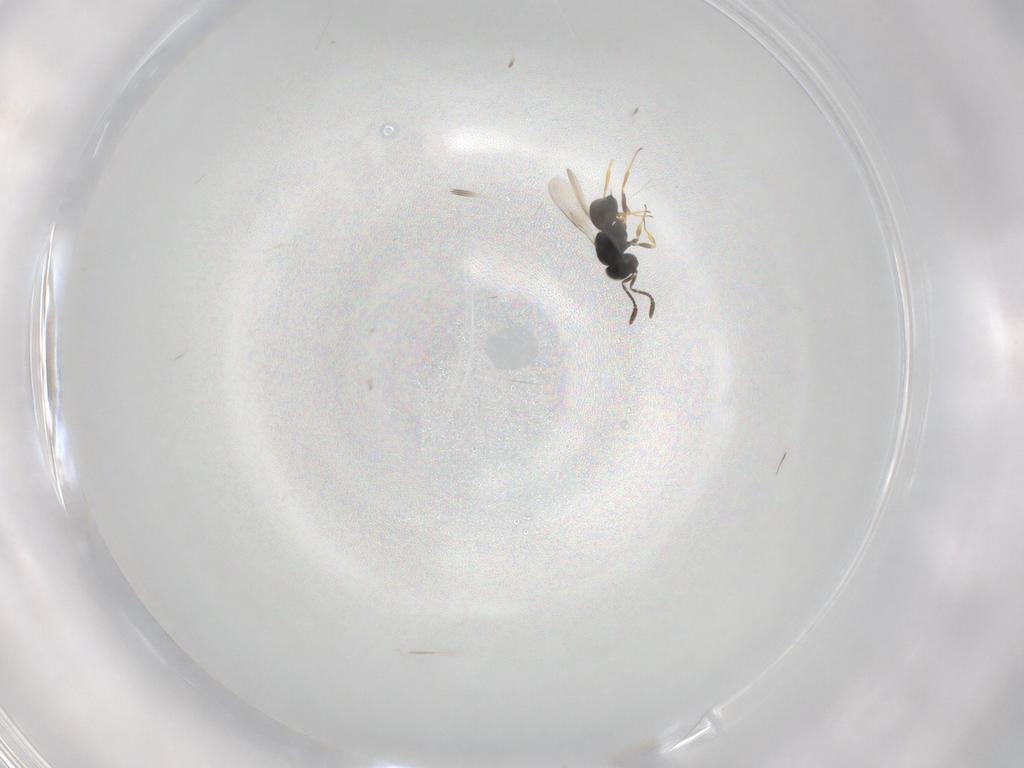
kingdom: Animalia
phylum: Arthropoda
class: Insecta
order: Hymenoptera
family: Scelionidae
